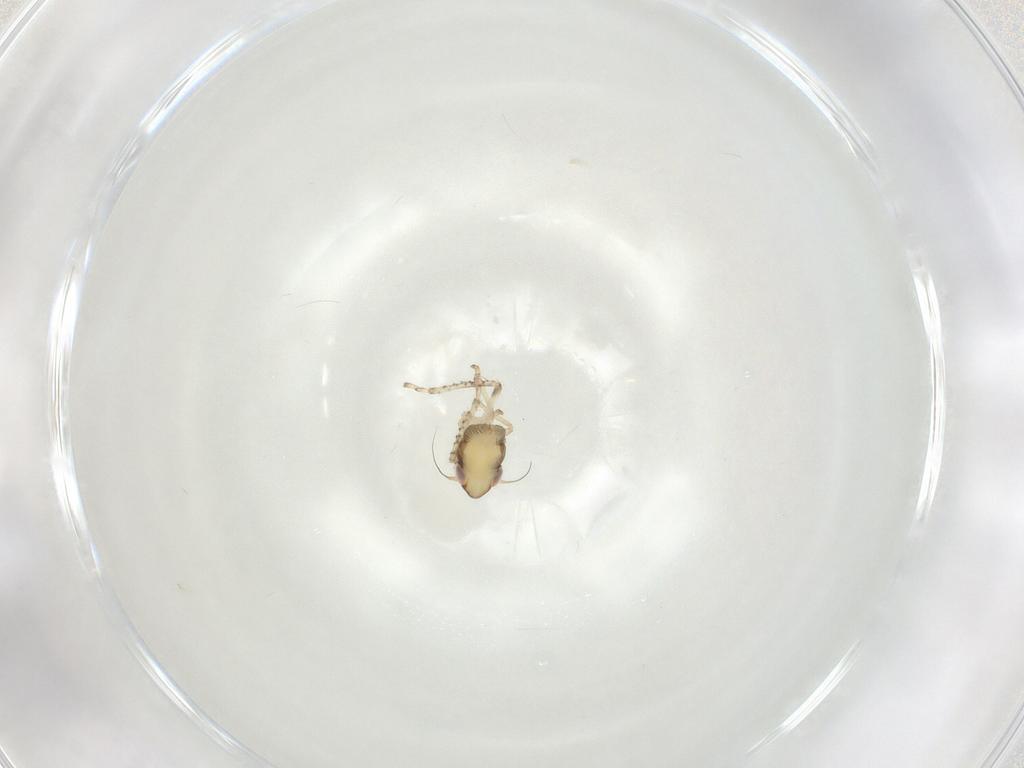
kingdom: Animalia
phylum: Arthropoda
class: Insecta
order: Hemiptera
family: Cicadellidae
